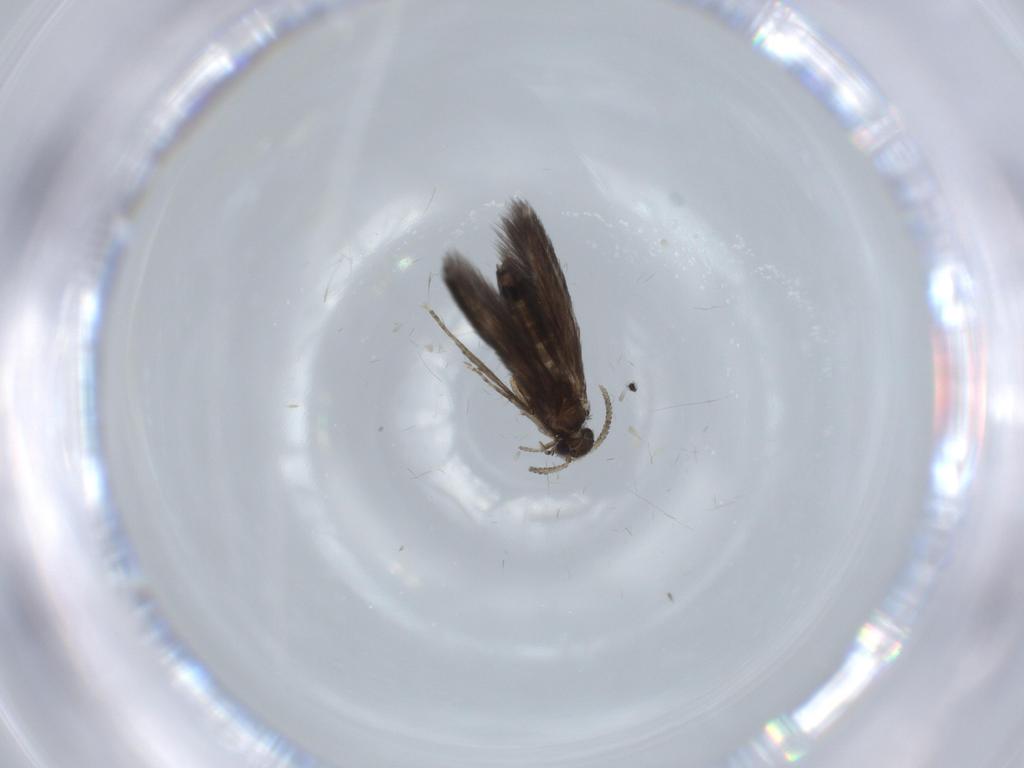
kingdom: Animalia
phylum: Arthropoda
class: Insecta
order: Trichoptera
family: Hydroptilidae
